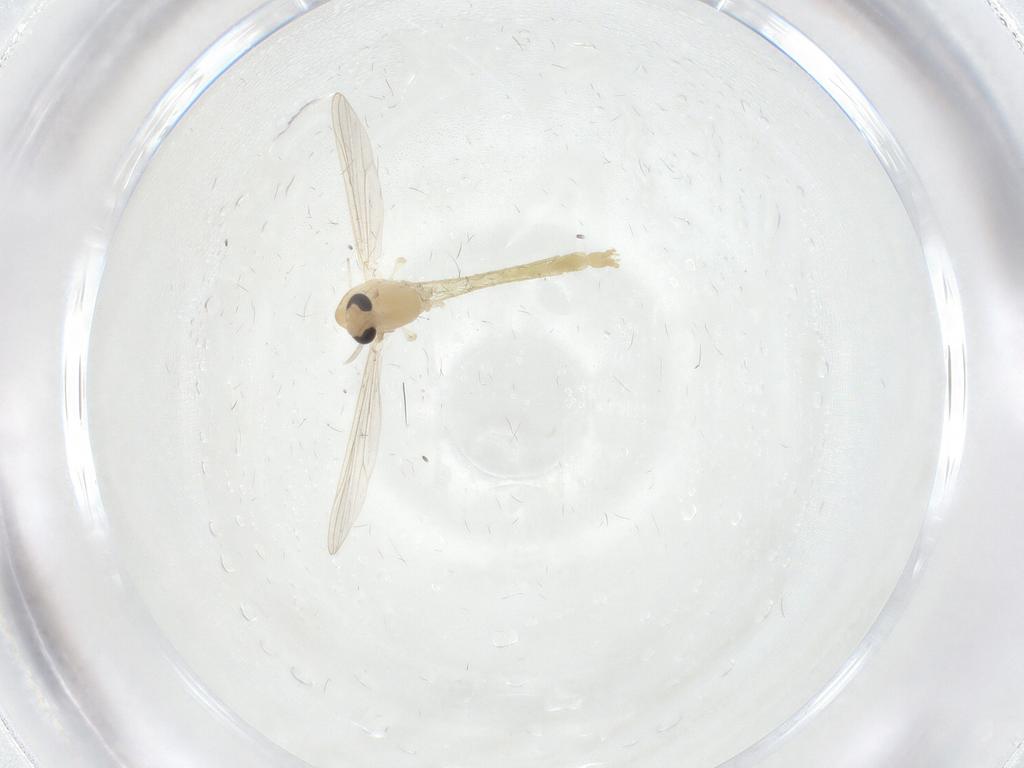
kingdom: Animalia
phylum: Arthropoda
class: Insecta
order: Diptera
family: Chironomidae
